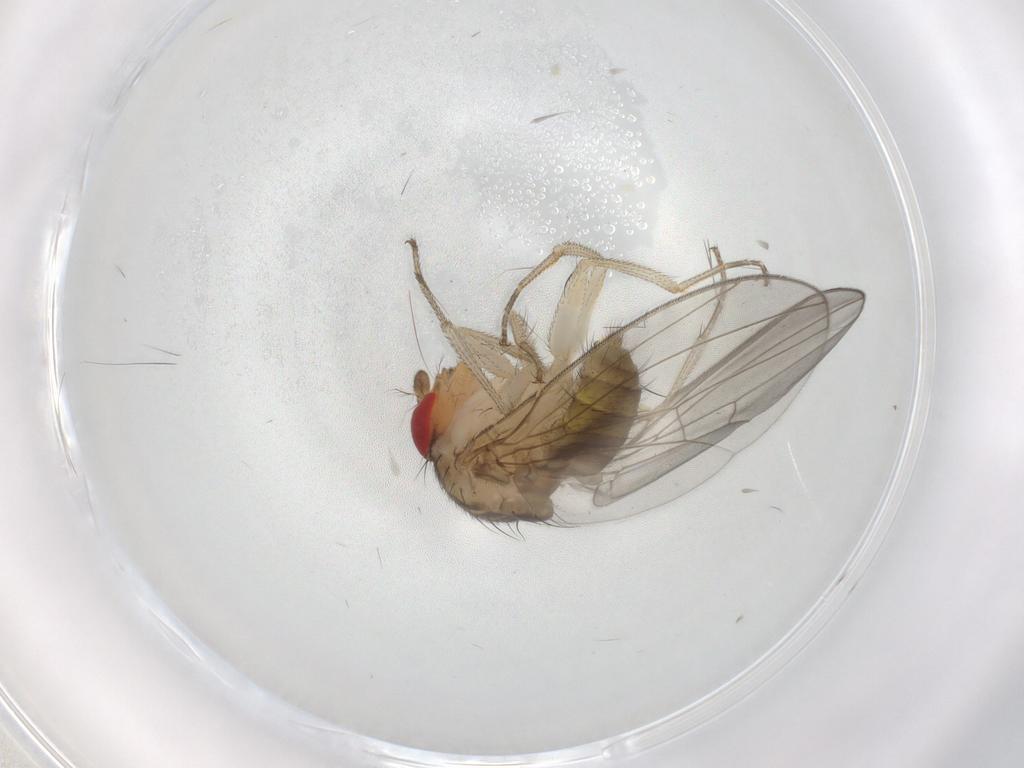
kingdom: Animalia
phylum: Arthropoda
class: Insecta
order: Diptera
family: Drosophilidae
